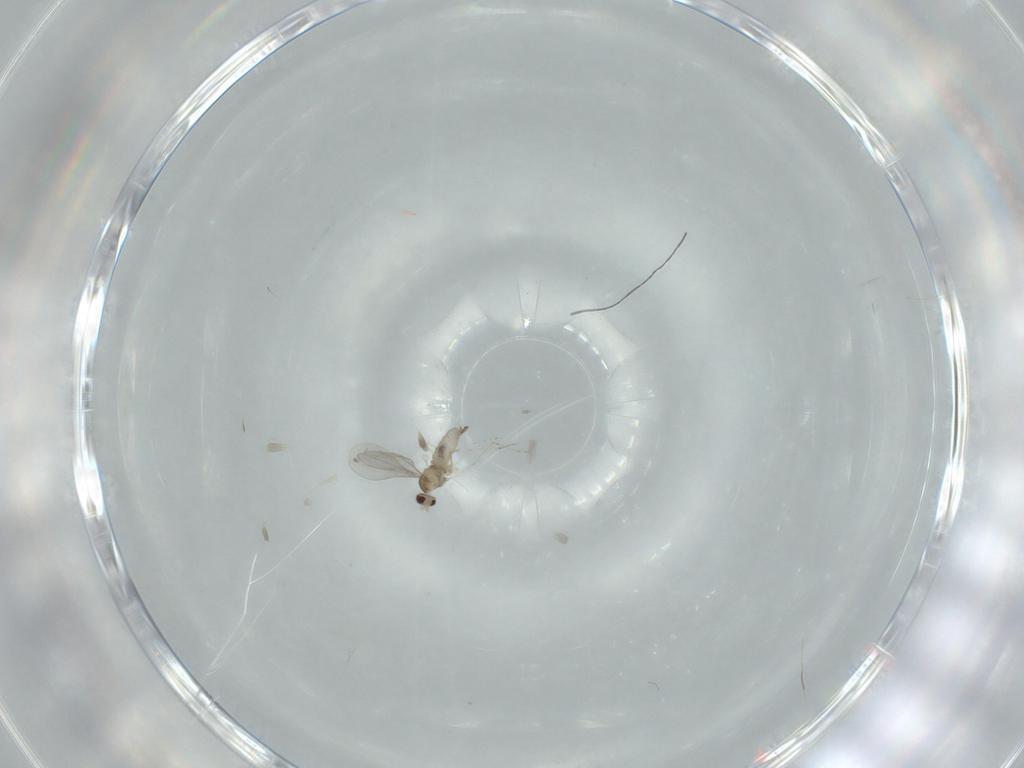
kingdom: Animalia
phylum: Arthropoda
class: Insecta
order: Diptera
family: Cecidomyiidae
